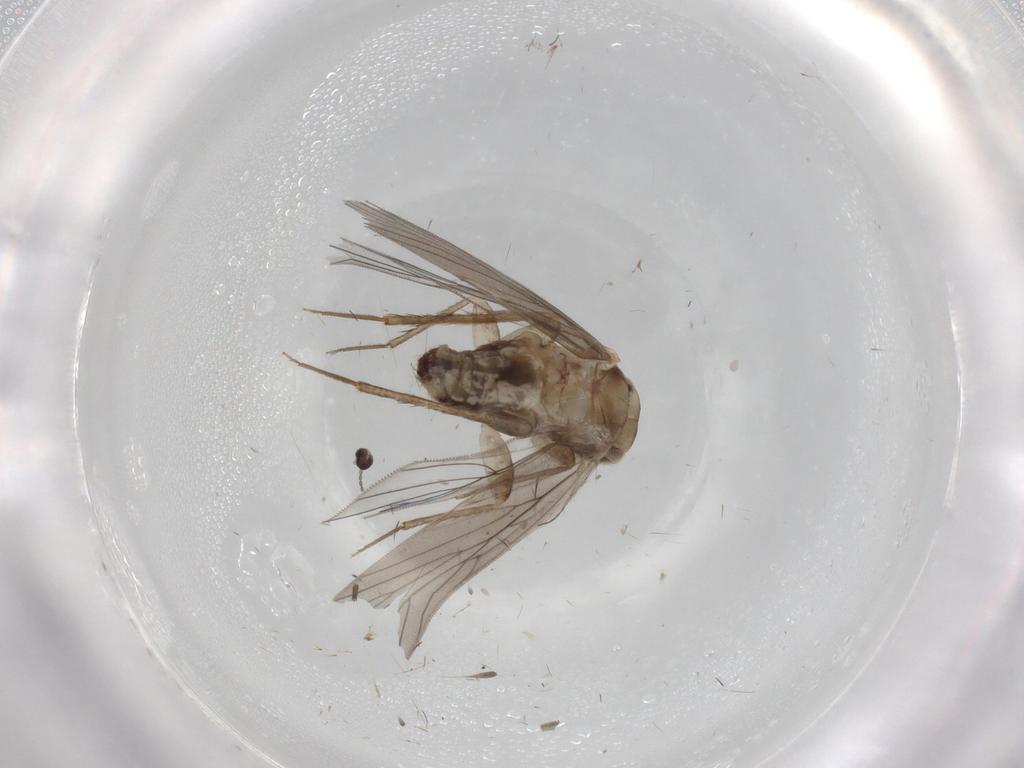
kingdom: Animalia
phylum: Arthropoda
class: Insecta
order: Psocodea
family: Lepidopsocidae
